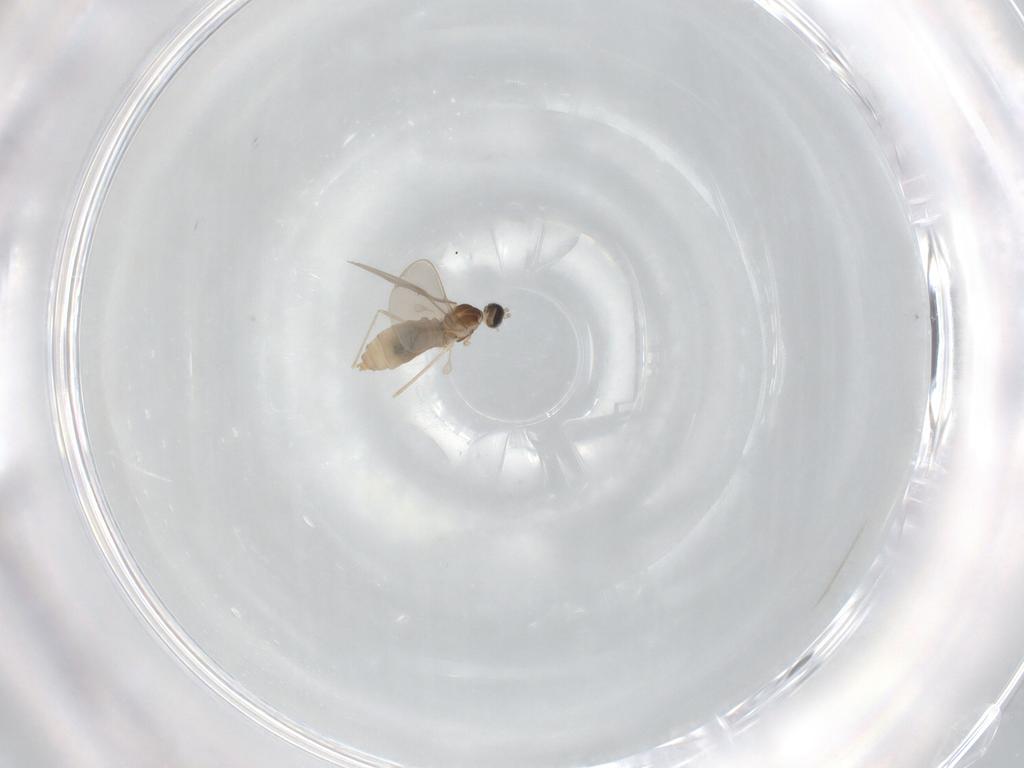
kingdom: Animalia
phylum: Arthropoda
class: Insecta
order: Diptera
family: Cecidomyiidae
